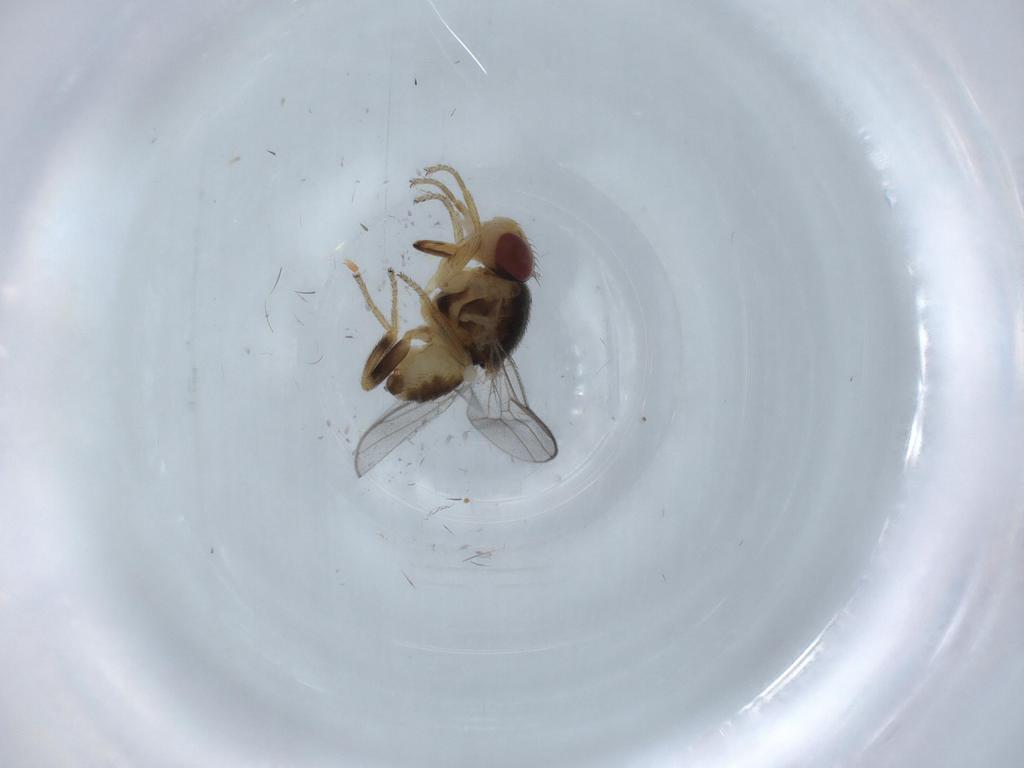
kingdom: Animalia
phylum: Arthropoda
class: Insecta
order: Diptera
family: Chloropidae
